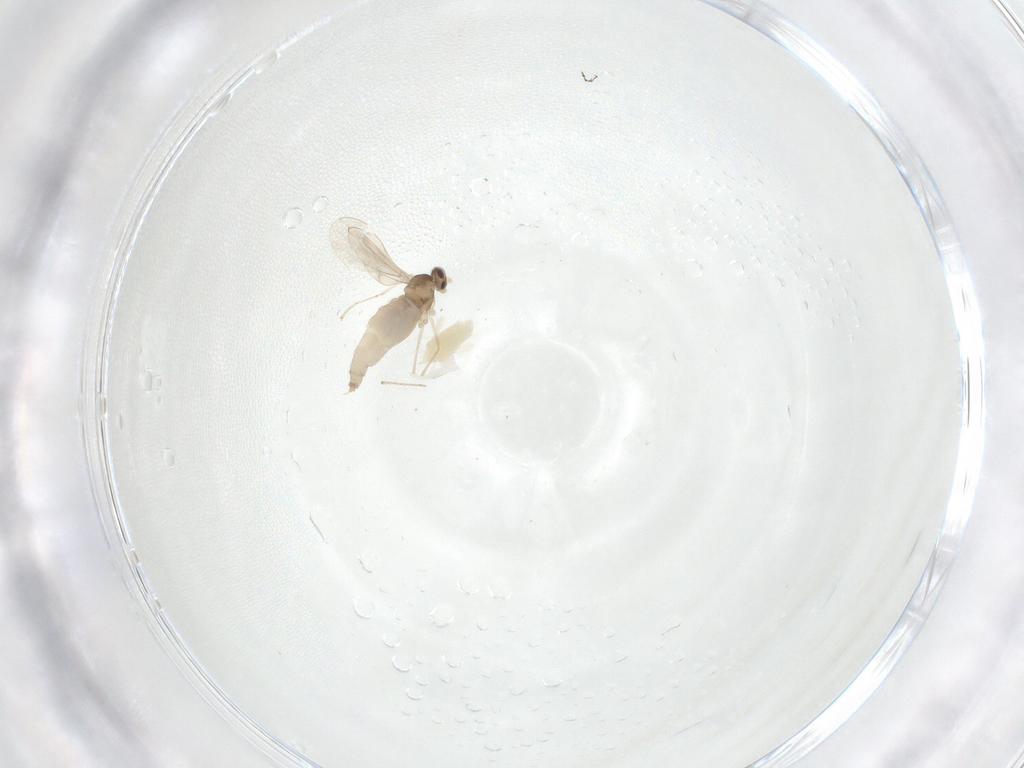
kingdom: Animalia
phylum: Arthropoda
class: Insecta
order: Diptera
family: Cecidomyiidae
